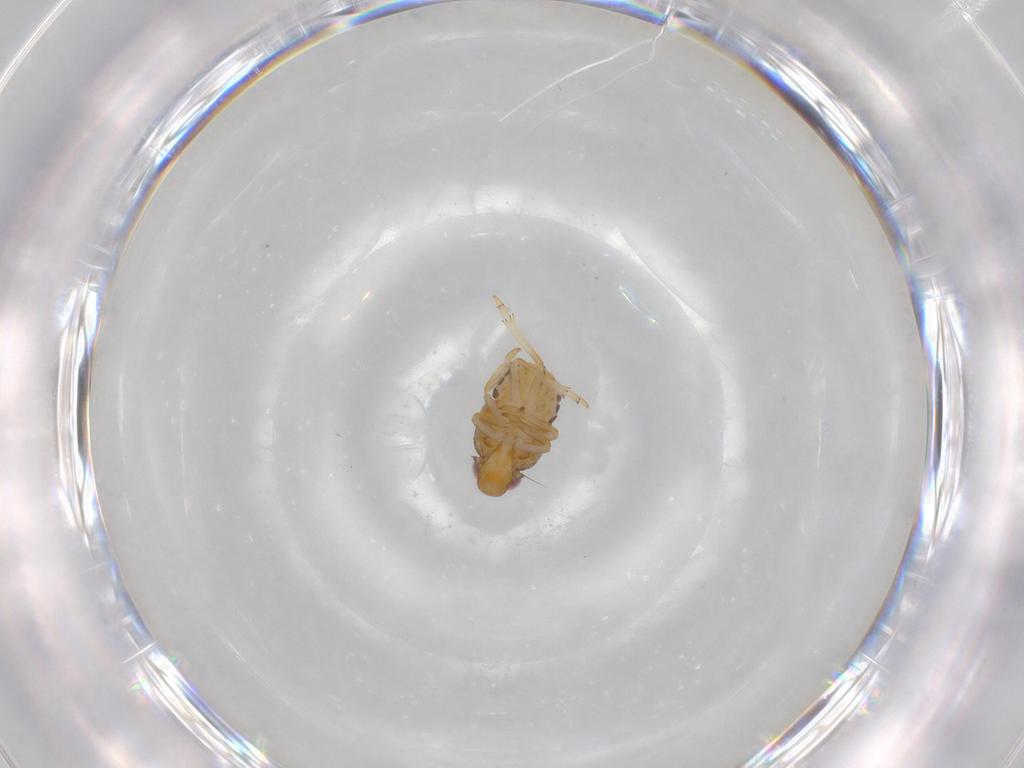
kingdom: Animalia
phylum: Arthropoda
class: Insecta
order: Hemiptera
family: Issidae
